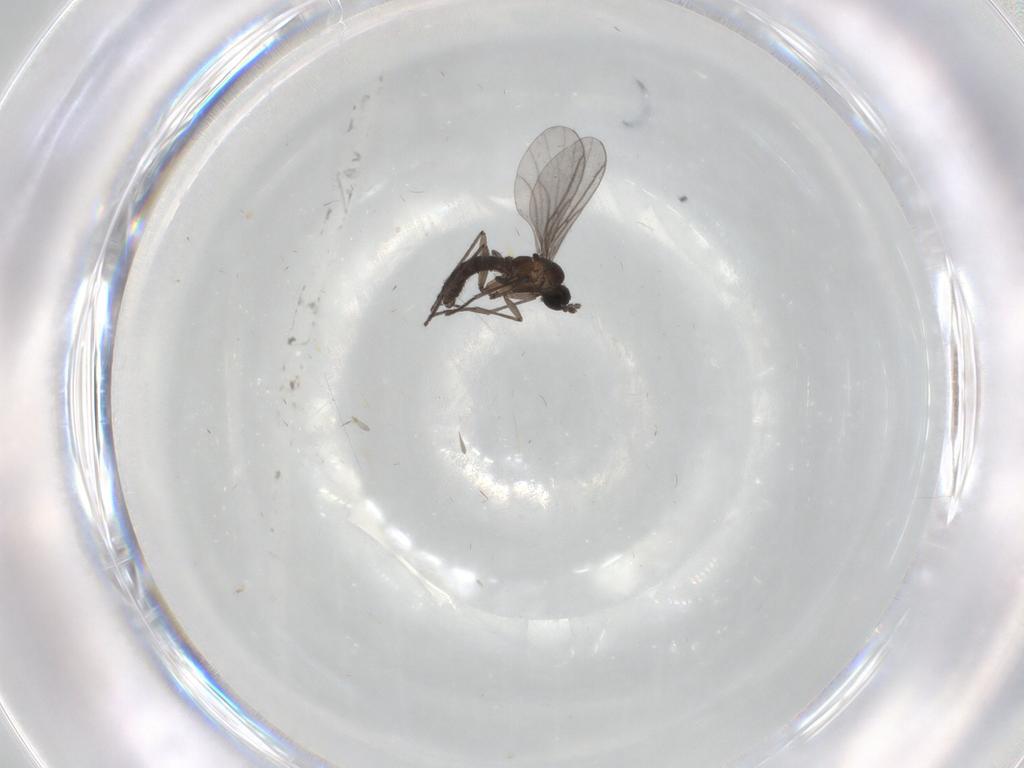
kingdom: Animalia
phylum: Arthropoda
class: Insecta
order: Diptera
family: Sciaridae
